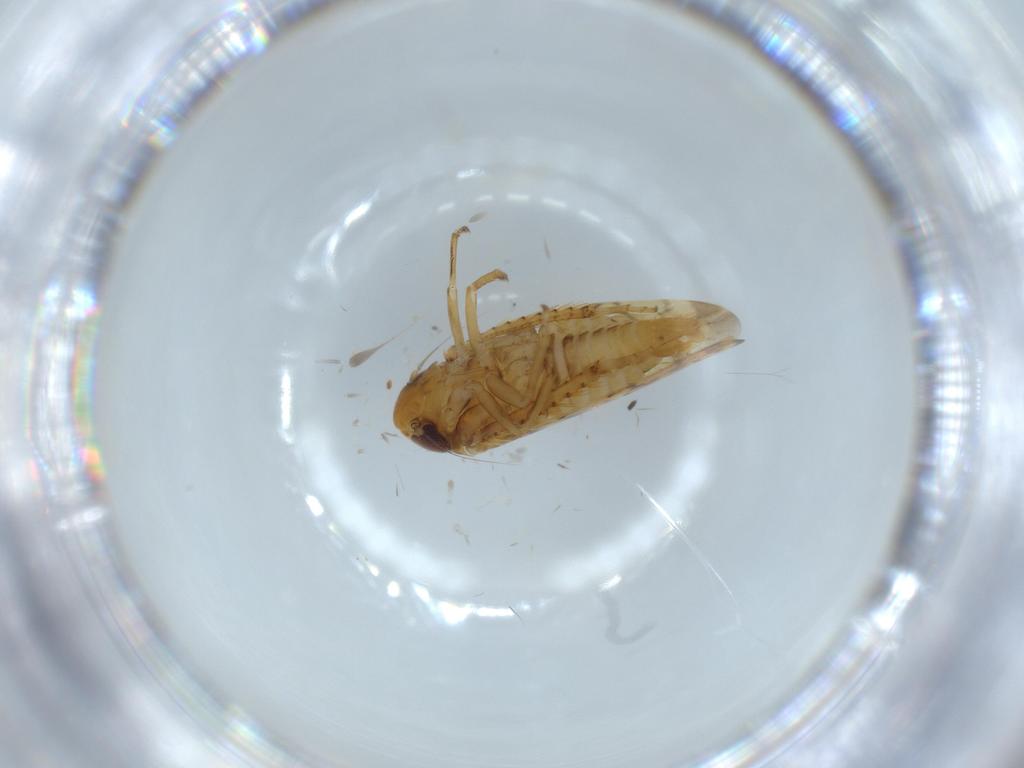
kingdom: Animalia
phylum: Arthropoda
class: Insecta
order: Hemiptera
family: Cicadellidae
